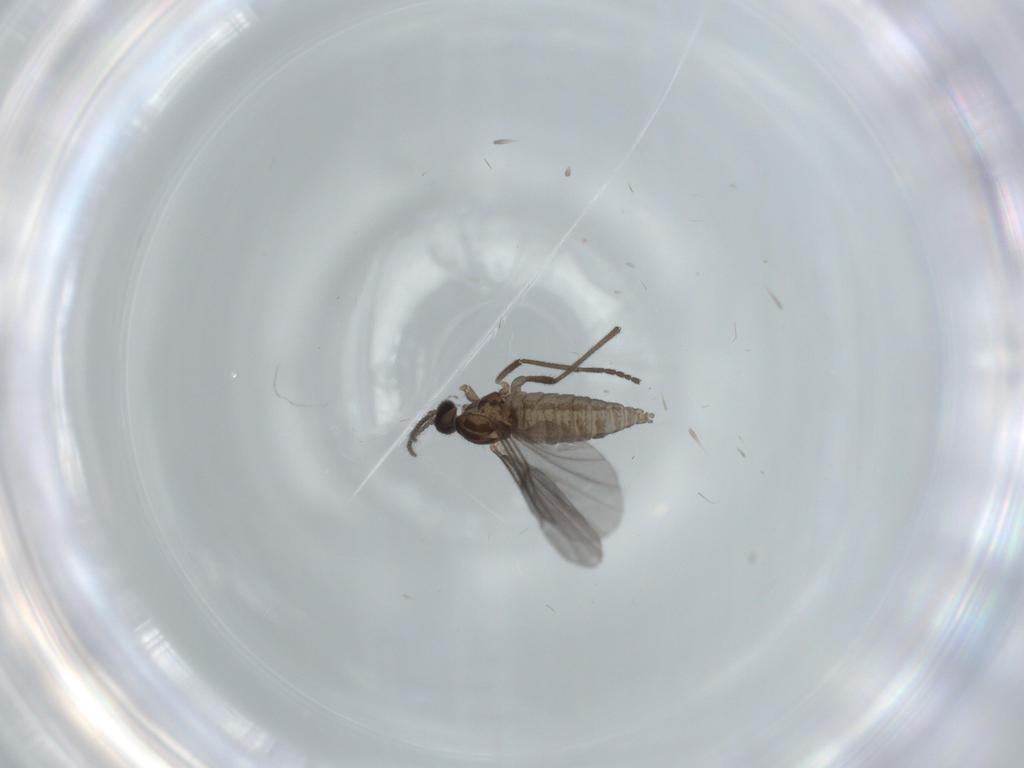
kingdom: Animalia
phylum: Arthropoda
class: Insecta
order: Diptera
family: Cecidomyiidae
